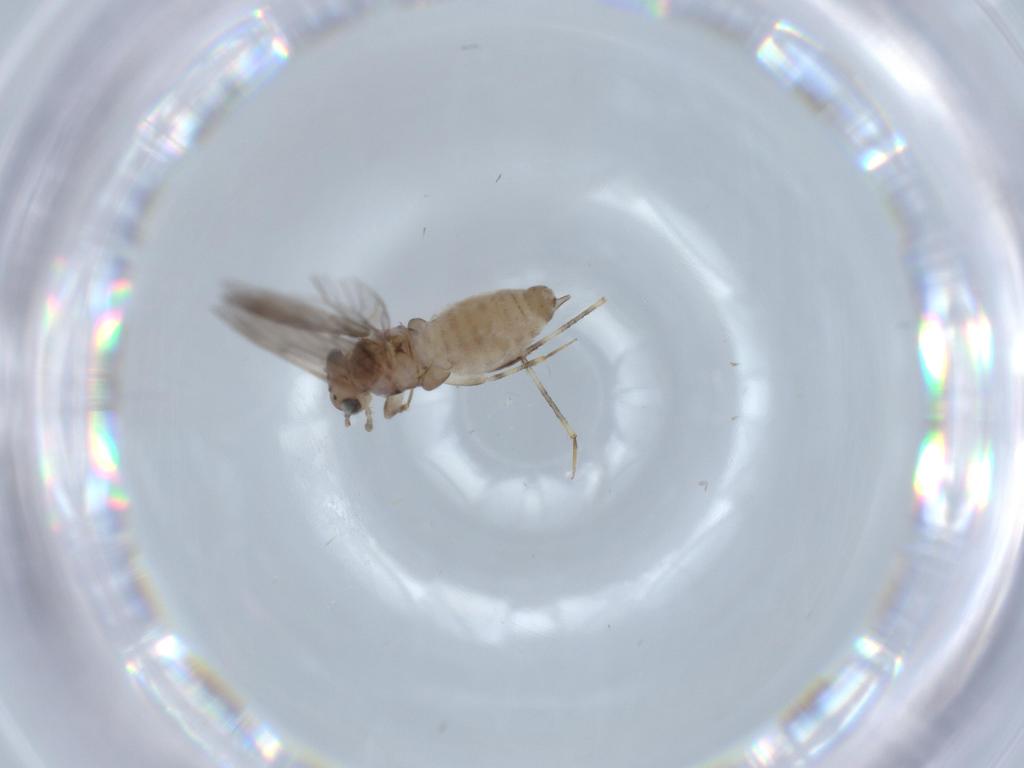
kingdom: Animalia
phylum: Arthropoda
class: Insecta
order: Psocodea
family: Lepidopsocidae
